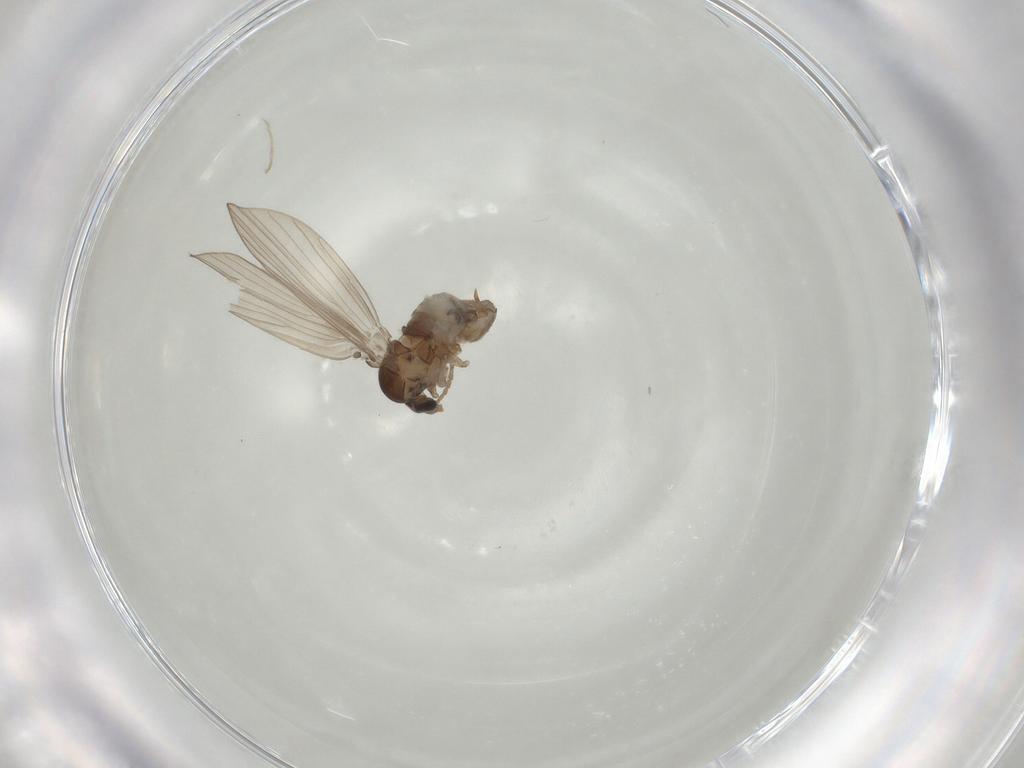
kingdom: Animalia
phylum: Arthropoda
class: Insecta
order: Diptera
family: Psychodidae
